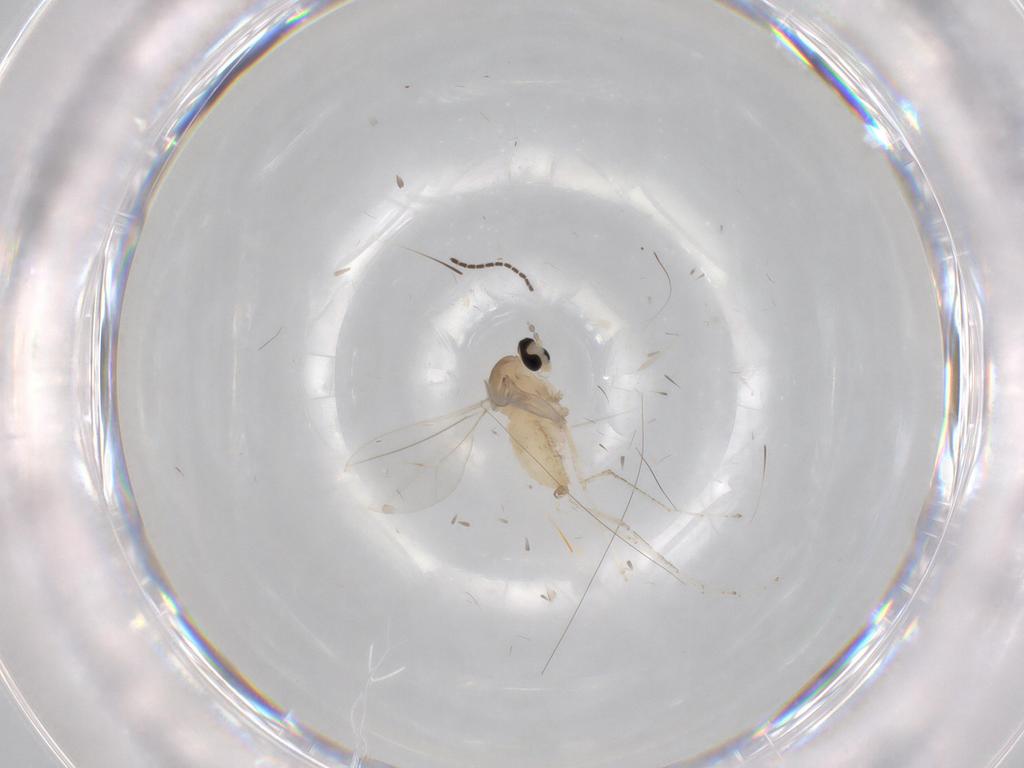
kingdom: Animalia
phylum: Arthropoda
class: Insecta
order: Diptera
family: Cecidomyiidae
